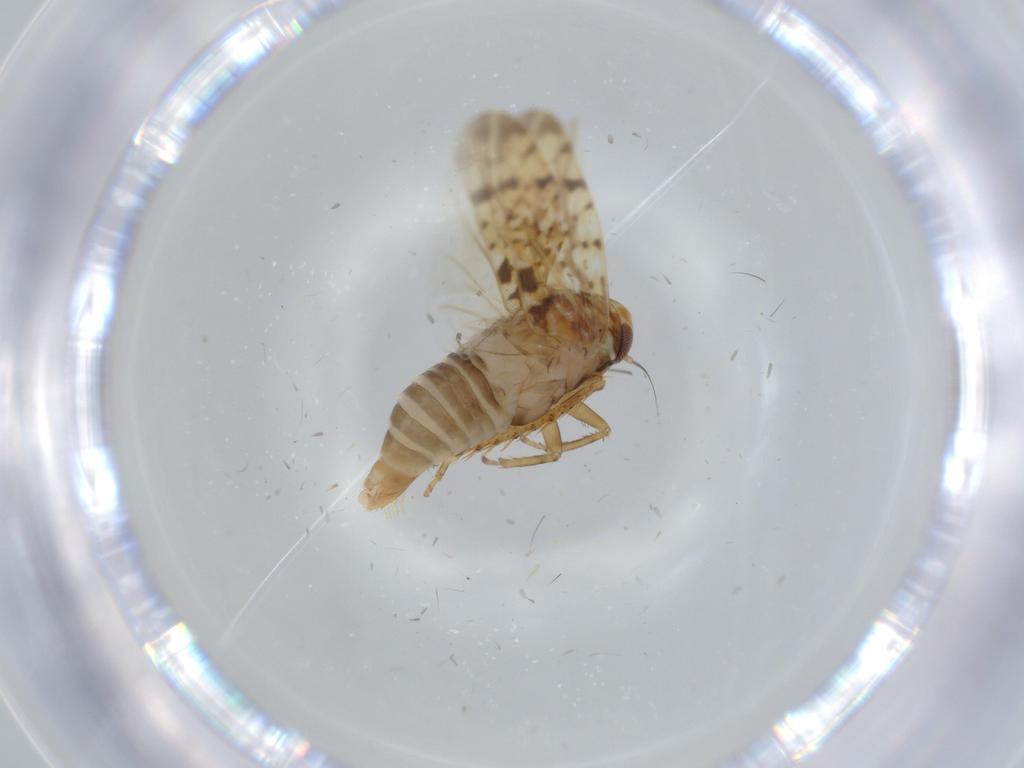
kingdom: Animalia
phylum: Arthropoda
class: Insecta
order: Hemiptera
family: Cicadellidae
